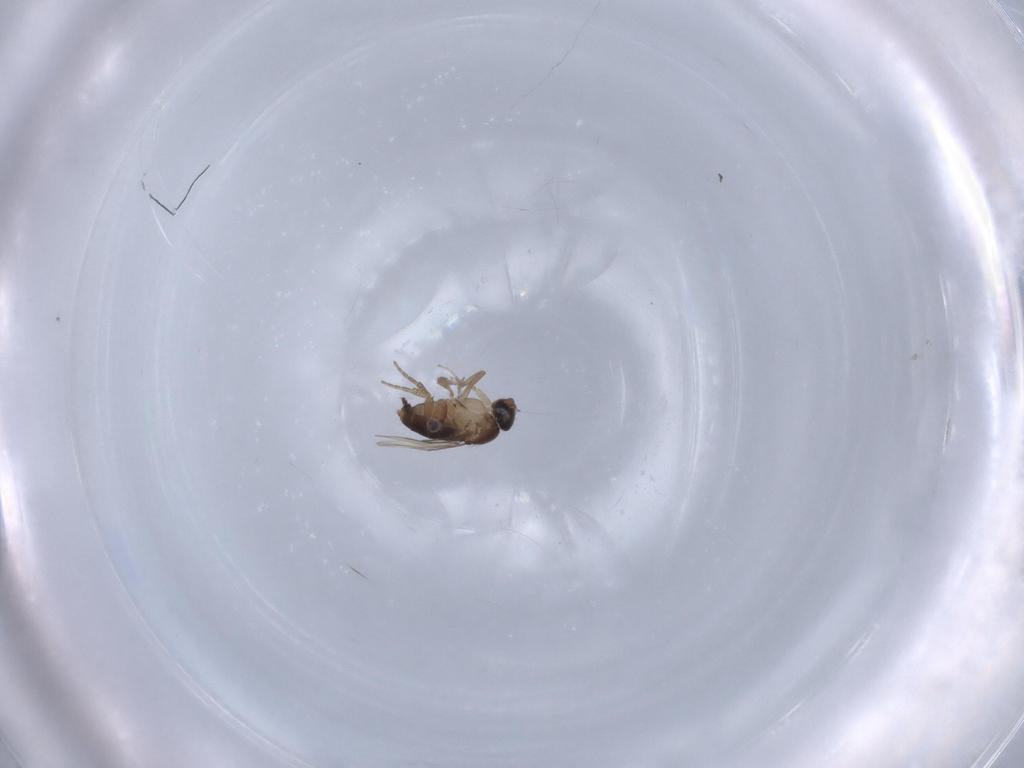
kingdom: Animalia
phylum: Arthropoda
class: Insecta
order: Diptera
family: Phoridae
